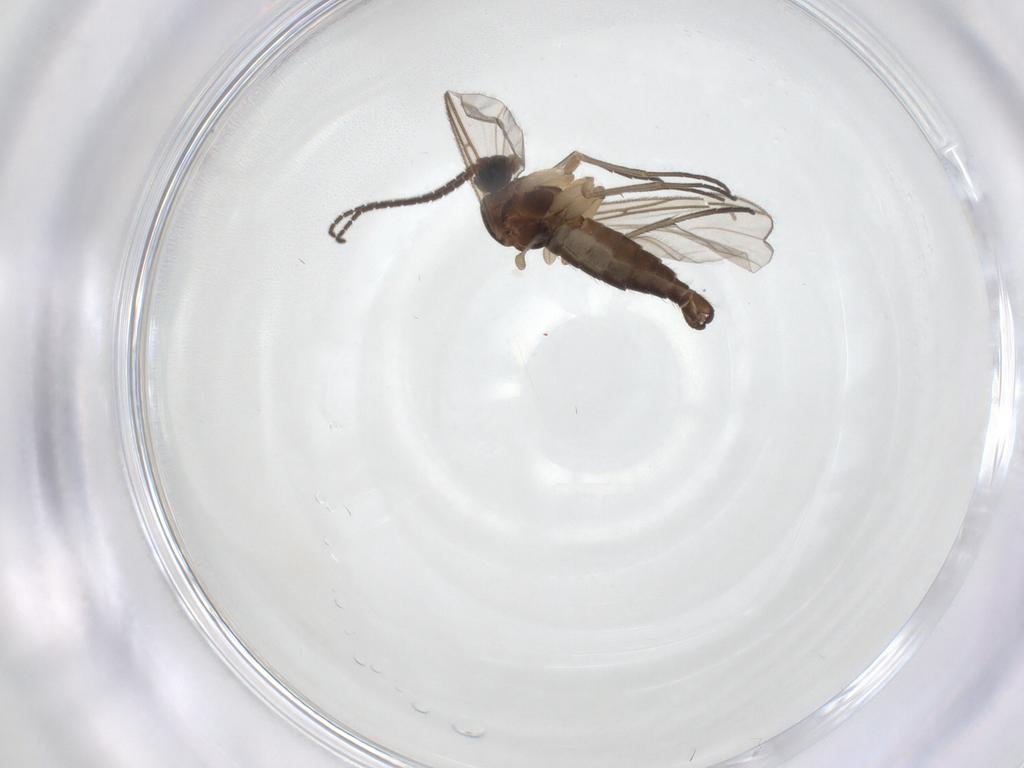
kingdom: Animalia
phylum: Arthropoda
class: Insecta
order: Diptera
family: Sciaridae
